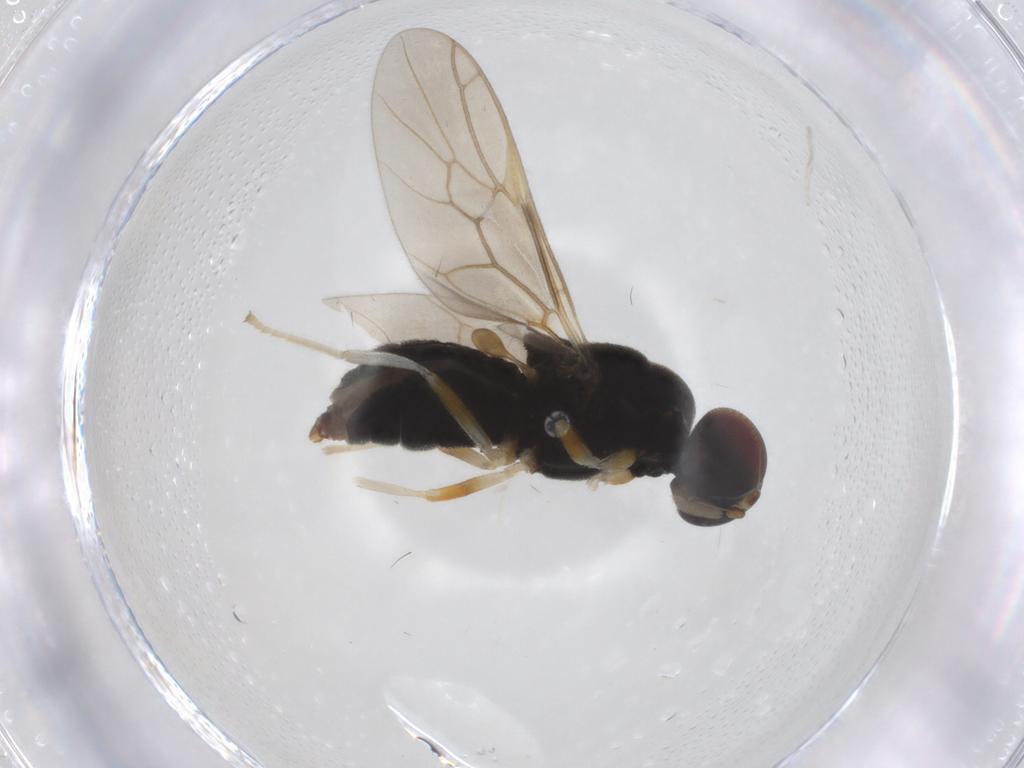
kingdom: Animalia
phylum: Arthropoda
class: Insecta
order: Diptera
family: Stratiomyidae
